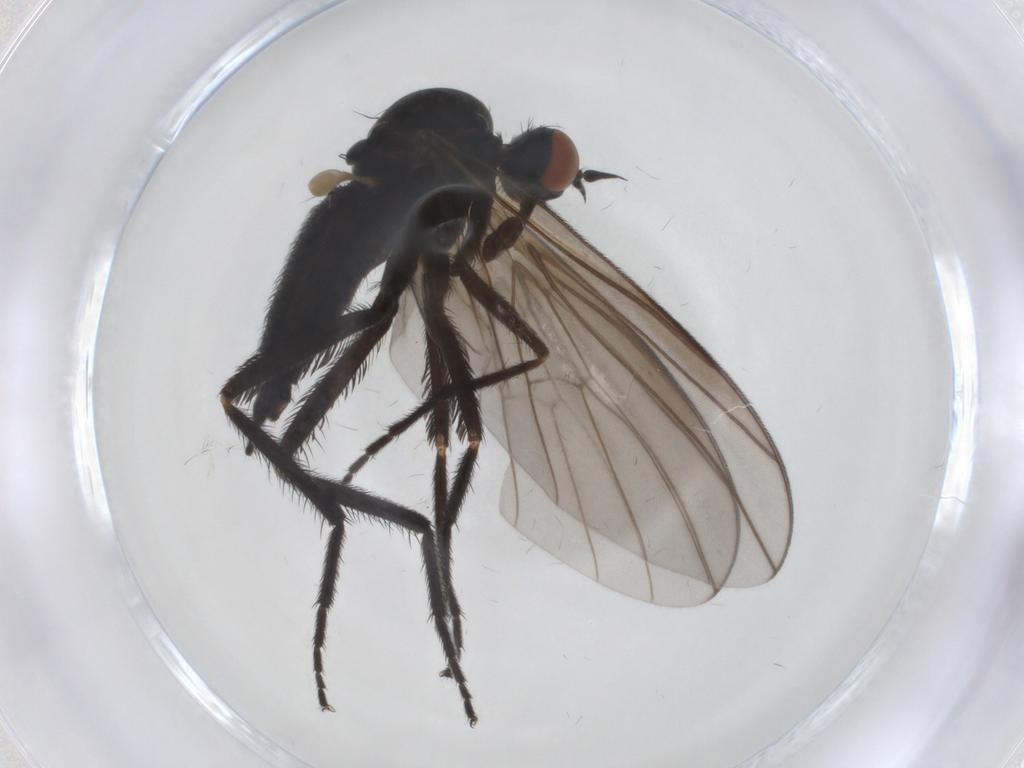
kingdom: Animalia
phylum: Arthropoda
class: Insecta
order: Diptera
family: Empididae
